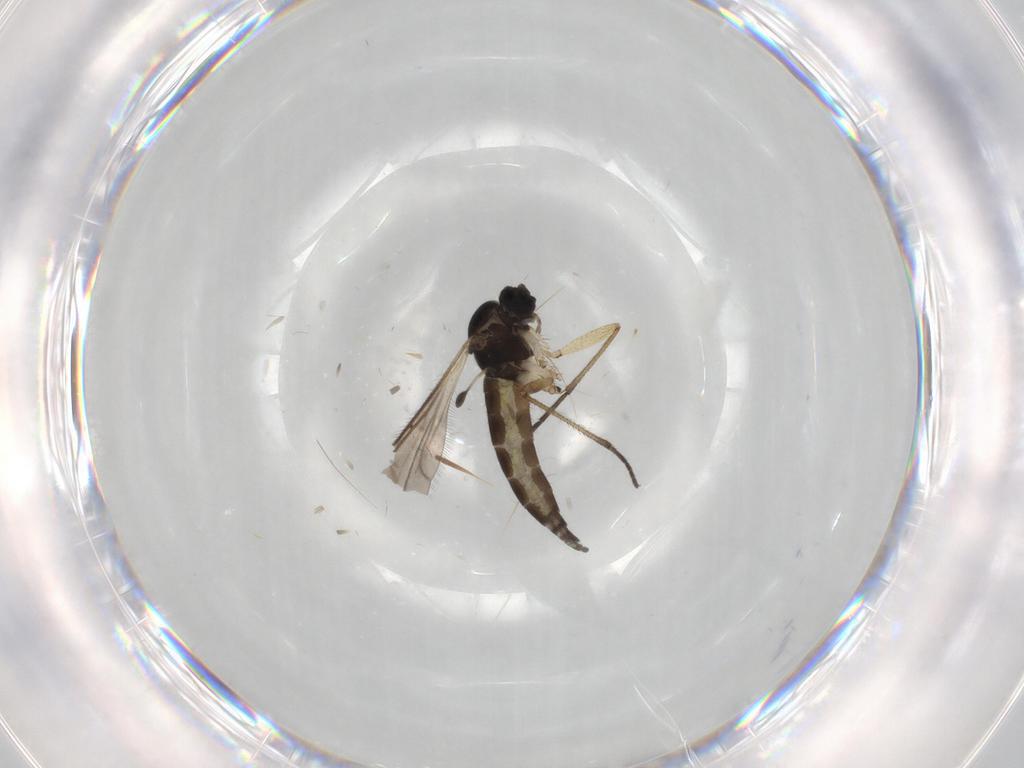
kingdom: Animalia
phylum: Arthropoda
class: Insecta
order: Diptera
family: Sciaridae
